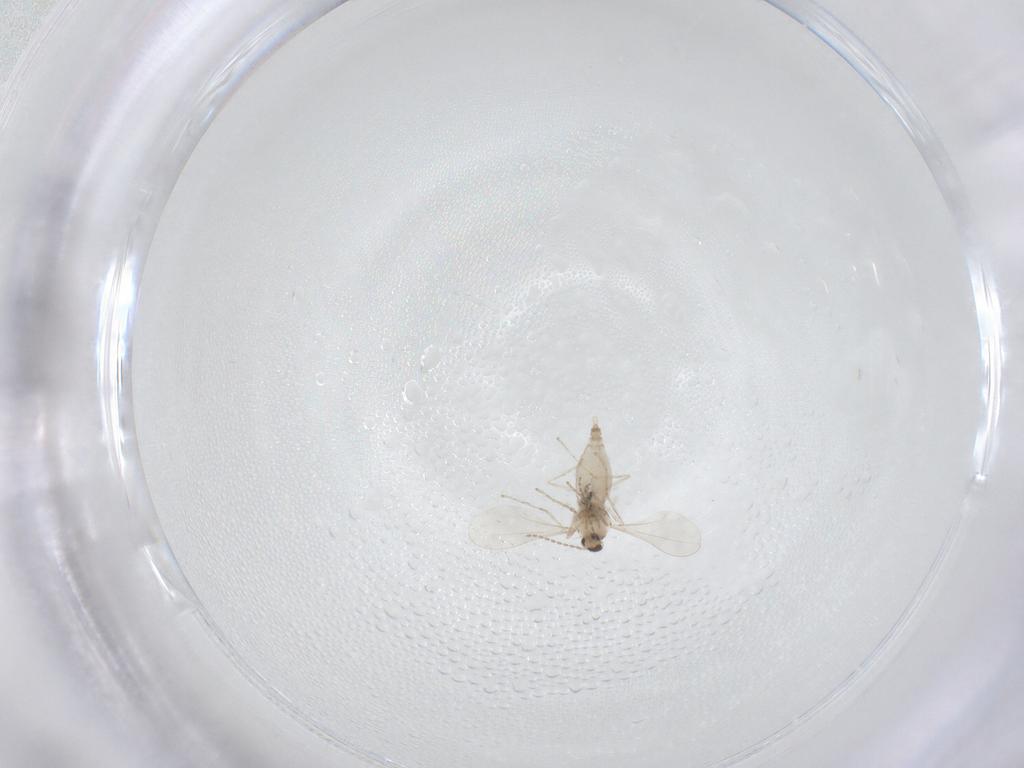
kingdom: Animalia
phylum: Arthropoda
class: Insecta
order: Diptera
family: Cecidomyiidae
